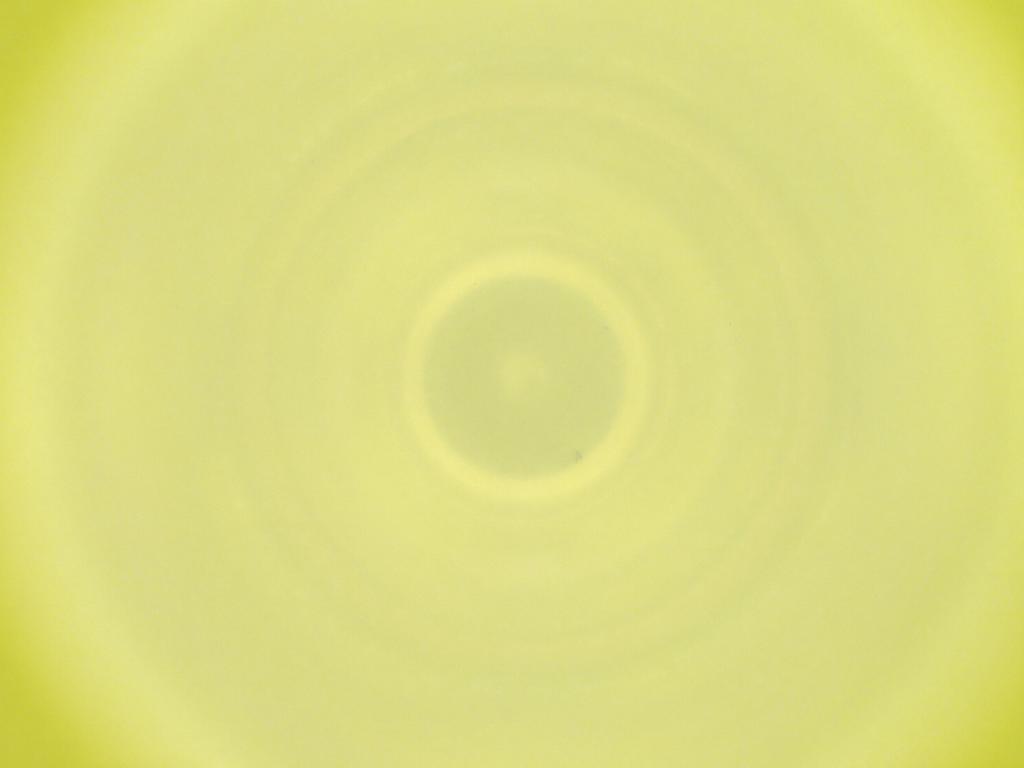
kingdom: Animalia
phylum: Arthropoda
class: Insecta
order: Diptera
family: Cecidomyiidae
